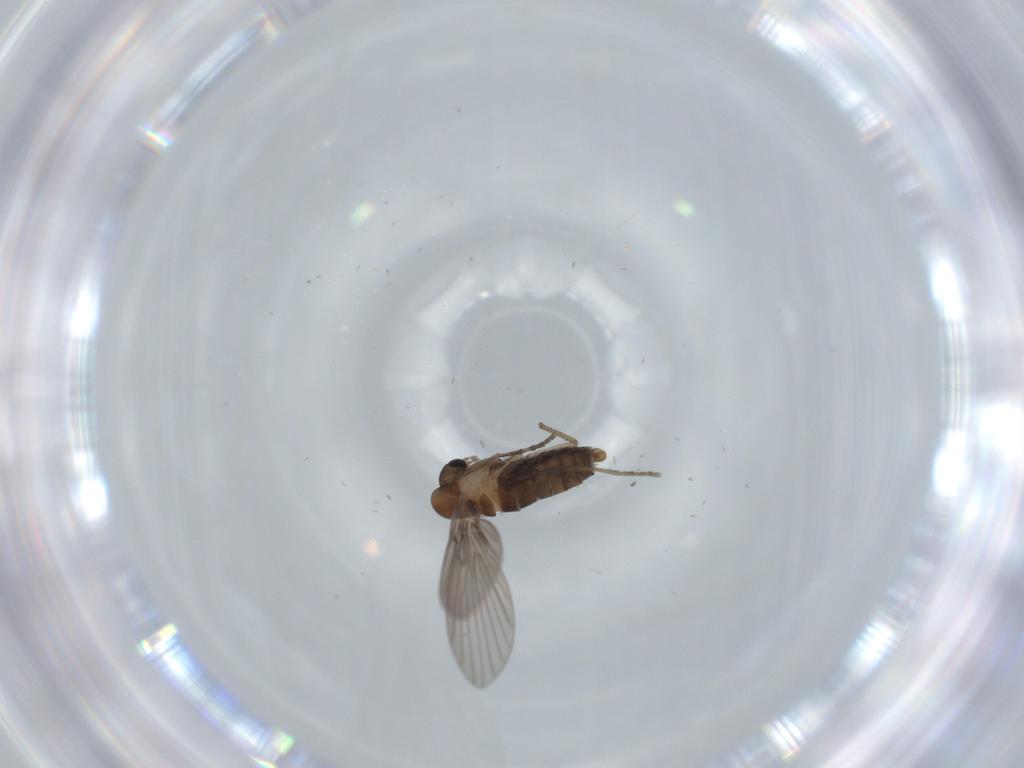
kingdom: Animalia
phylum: Arthropoda
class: Insecta
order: Diptera
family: Psychodidae
